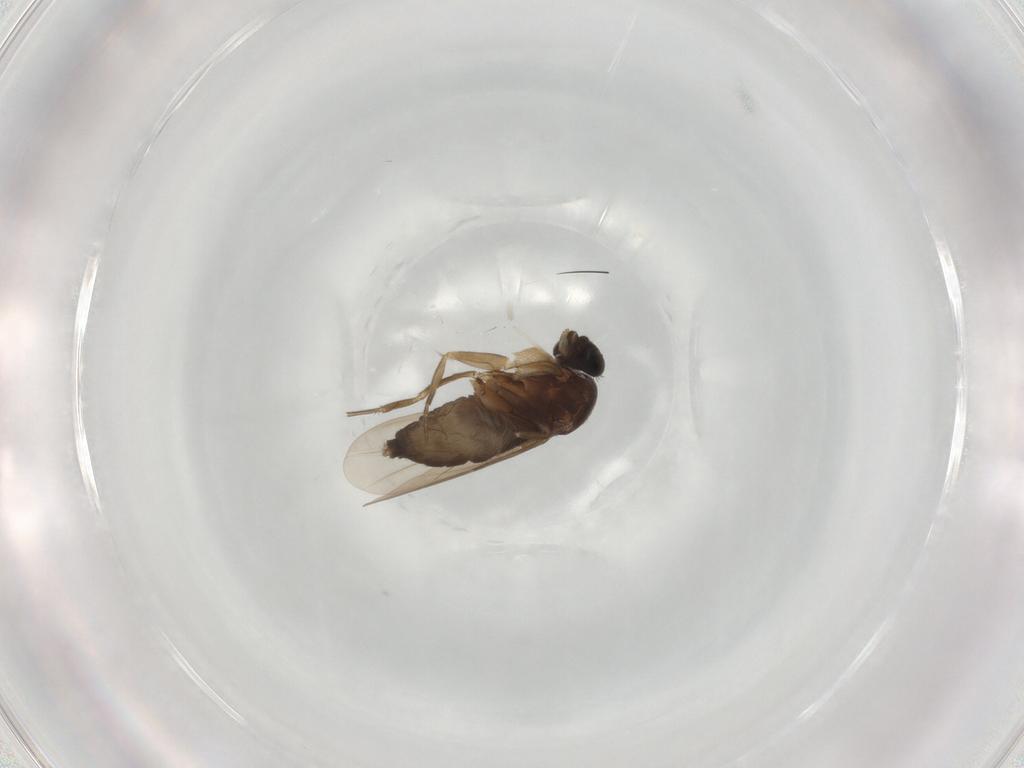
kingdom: Animalia
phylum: Arthropoda
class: Insecta
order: Diptera
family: Phoridae
